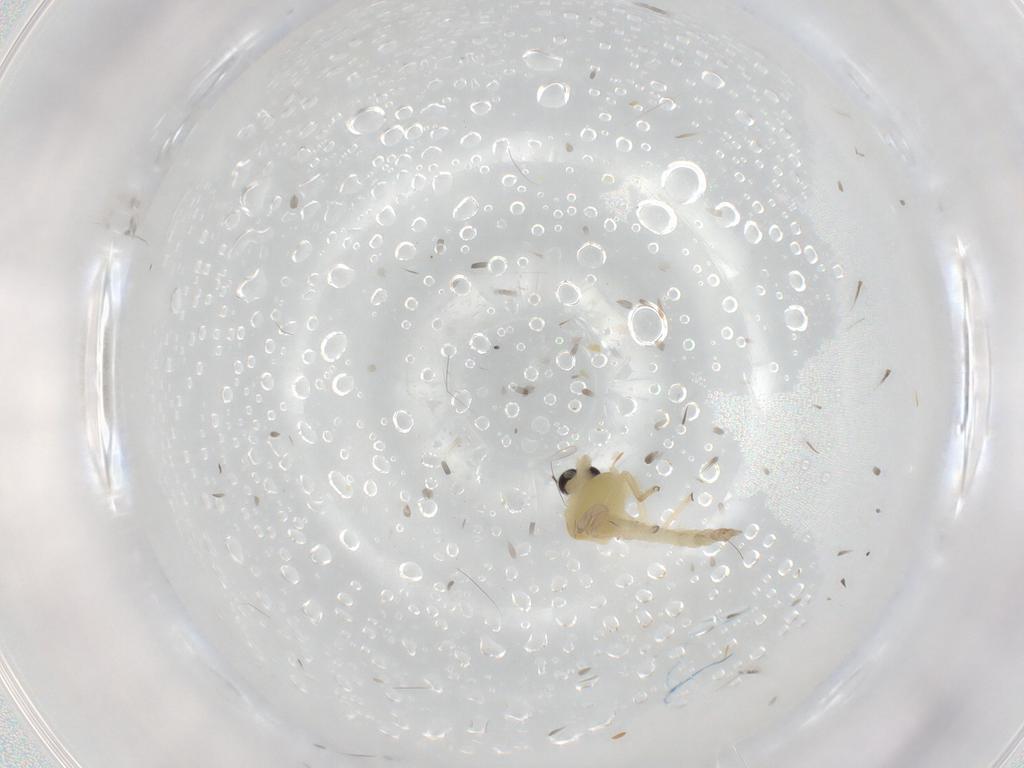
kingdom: Animalia
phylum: Arthropoda
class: Insecta
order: Diptera
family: Chironomidae
